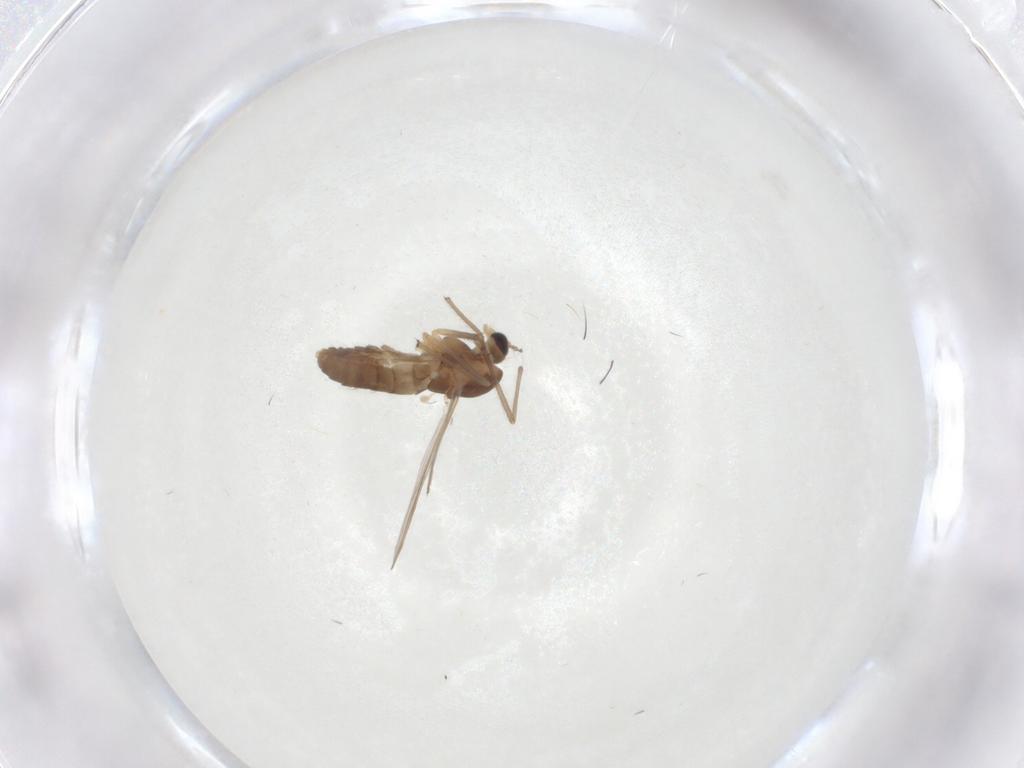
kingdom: Animalia
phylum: Arthropoda
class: Insecta
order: Diptera
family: Chironomidae
